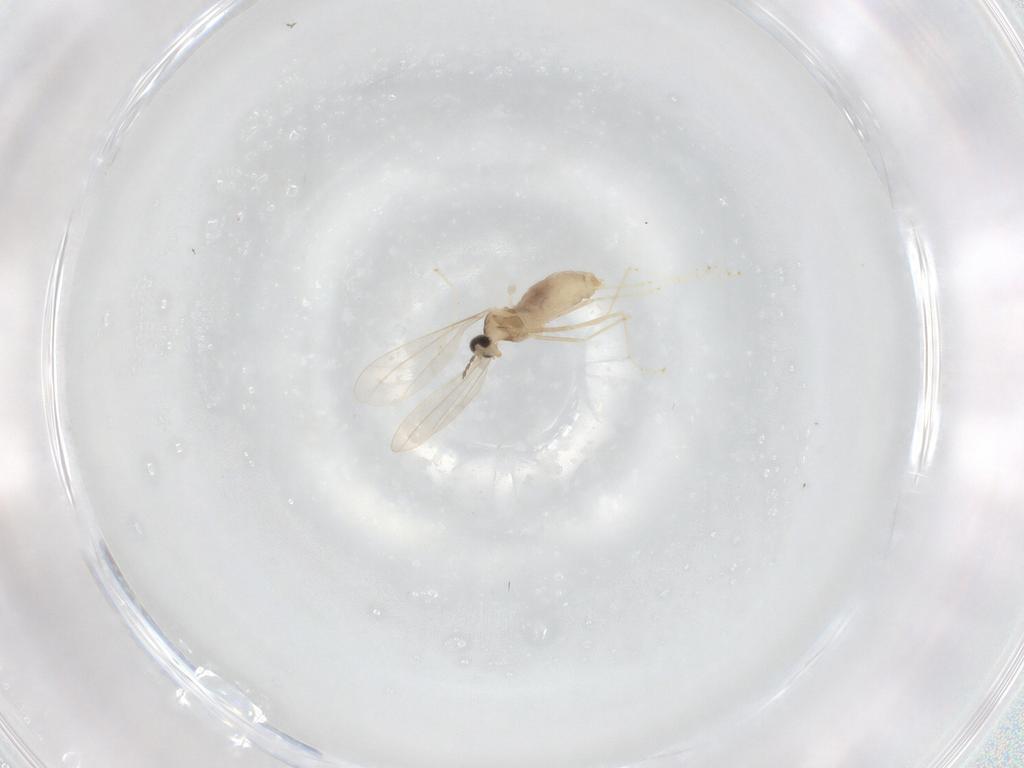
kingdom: Animalia
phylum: Arthropoda
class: Insecta
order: Diptera
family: Cecidomyiidae
